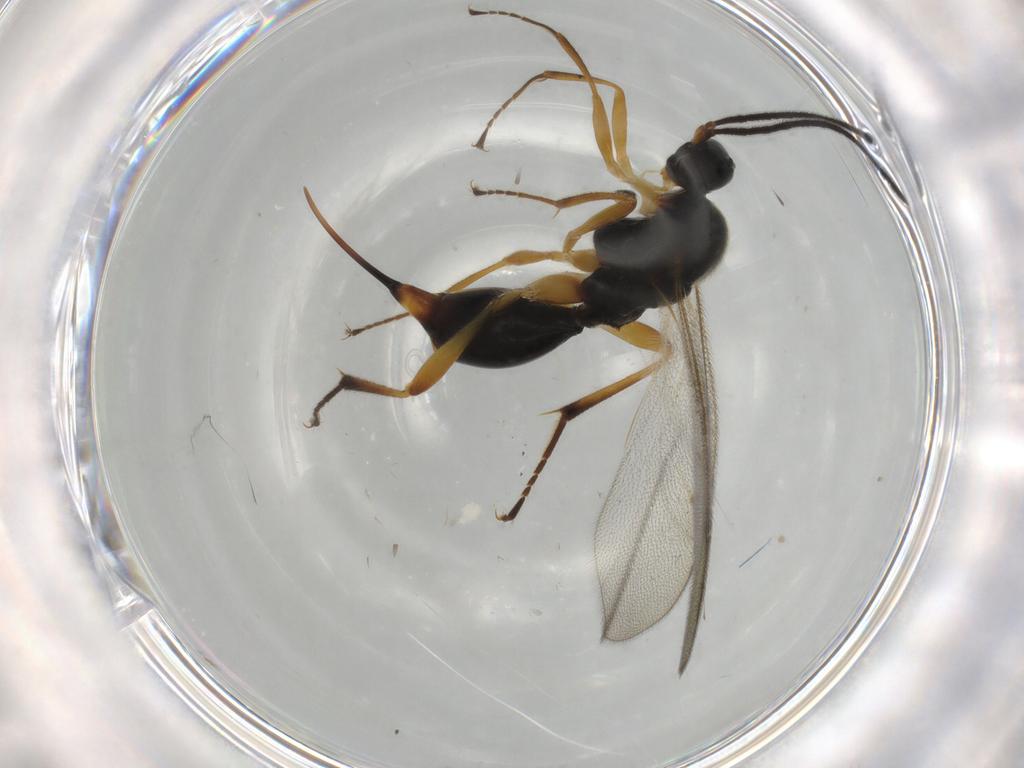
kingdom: Animalia
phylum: Arthropoda
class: Insecta
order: Hymenoptera
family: Proctotrupidae
